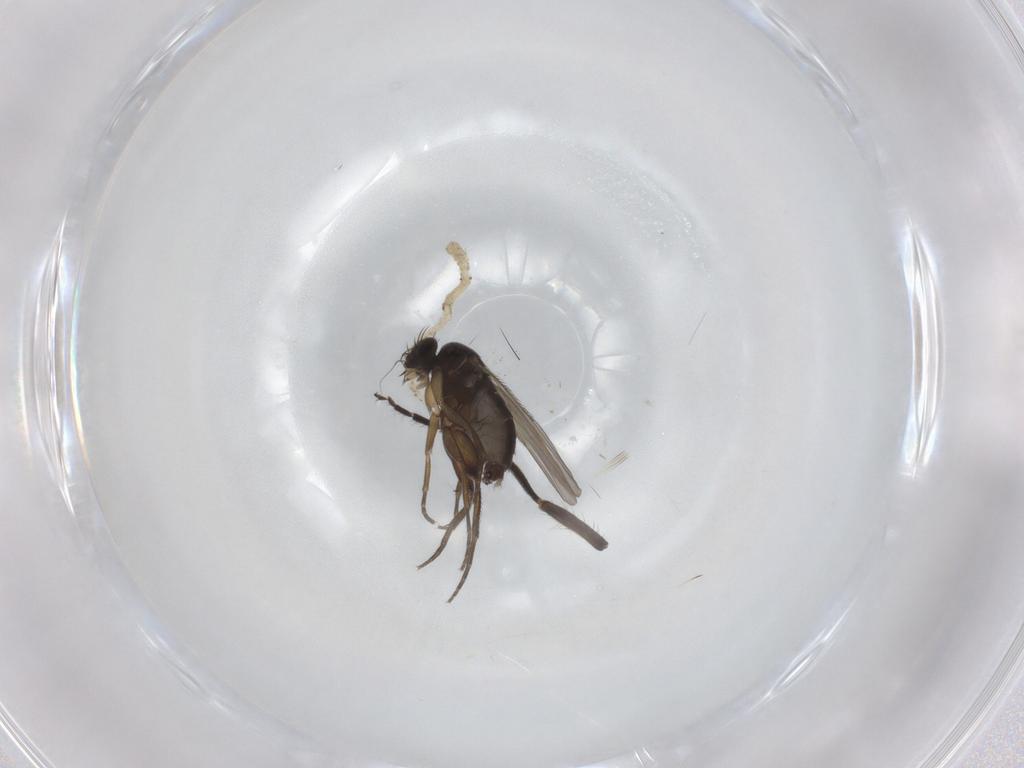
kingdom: Animalia
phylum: Arthropoda
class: Insecta
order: Diptera
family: Phoridae
